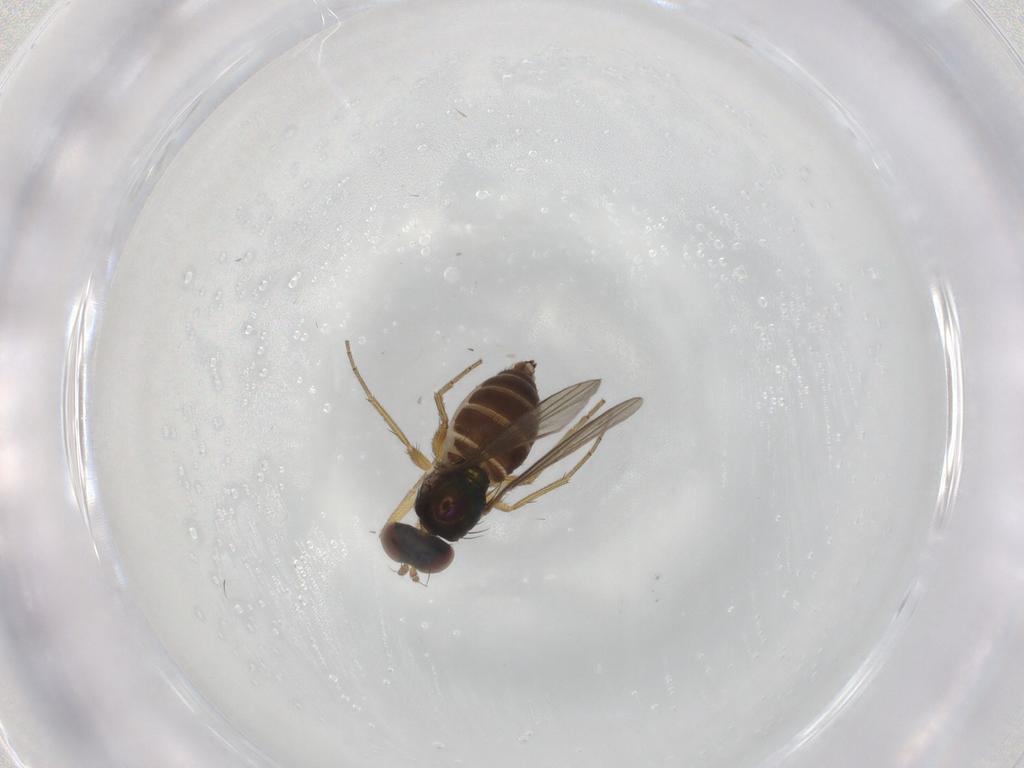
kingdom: Animalia
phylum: Arthropoda
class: Insecta
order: Diptera
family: Dolichopodidae
